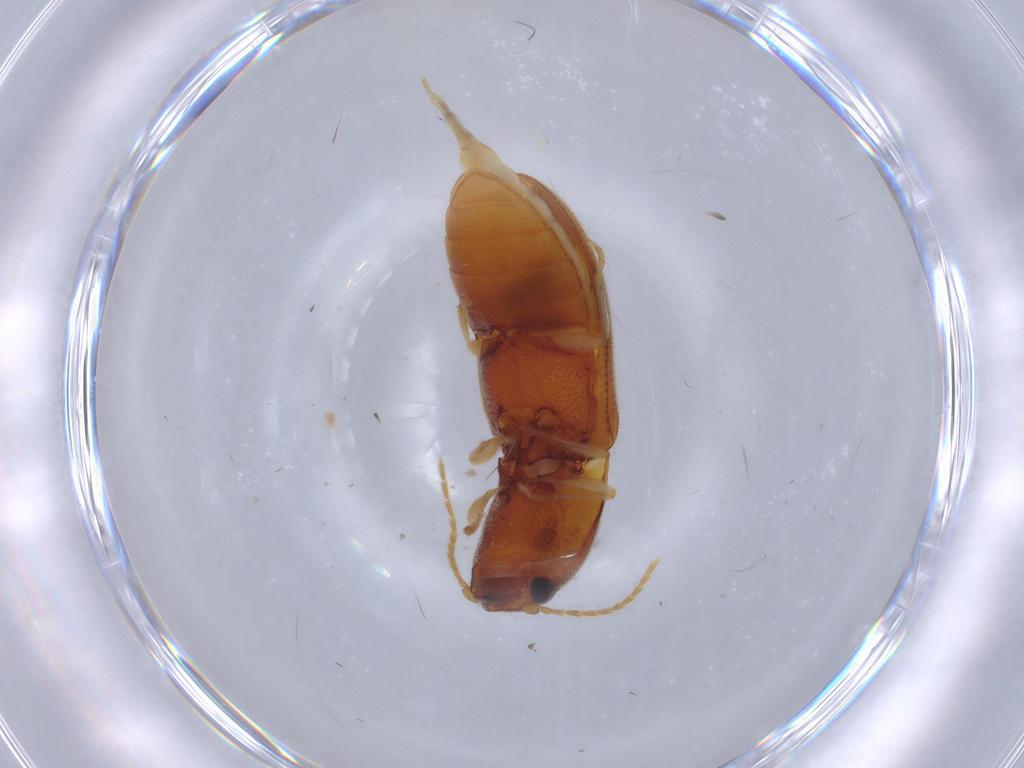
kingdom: Animalia
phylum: Arthropoda
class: Insecta
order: Coleoptera
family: Elateridae
